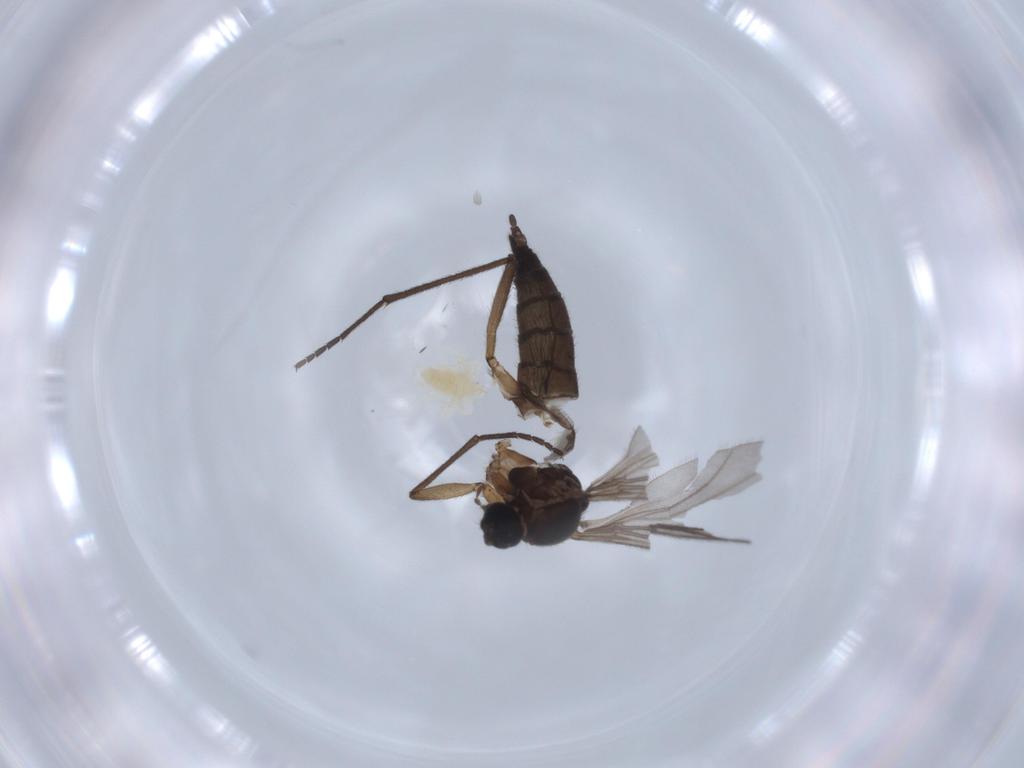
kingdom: Animalia
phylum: Arthropoda
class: Insecta
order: Diptera
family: Sciaridae
